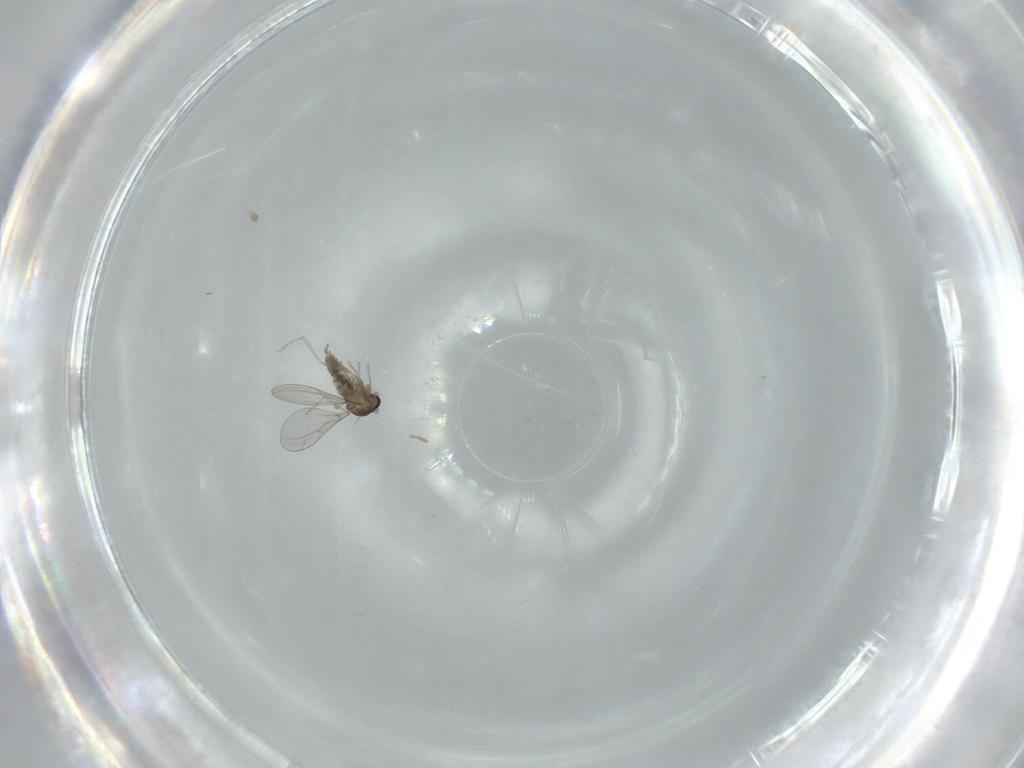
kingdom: Animalia
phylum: Arthropoda
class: Insecta
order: Diptera
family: Cecidomyiidae
